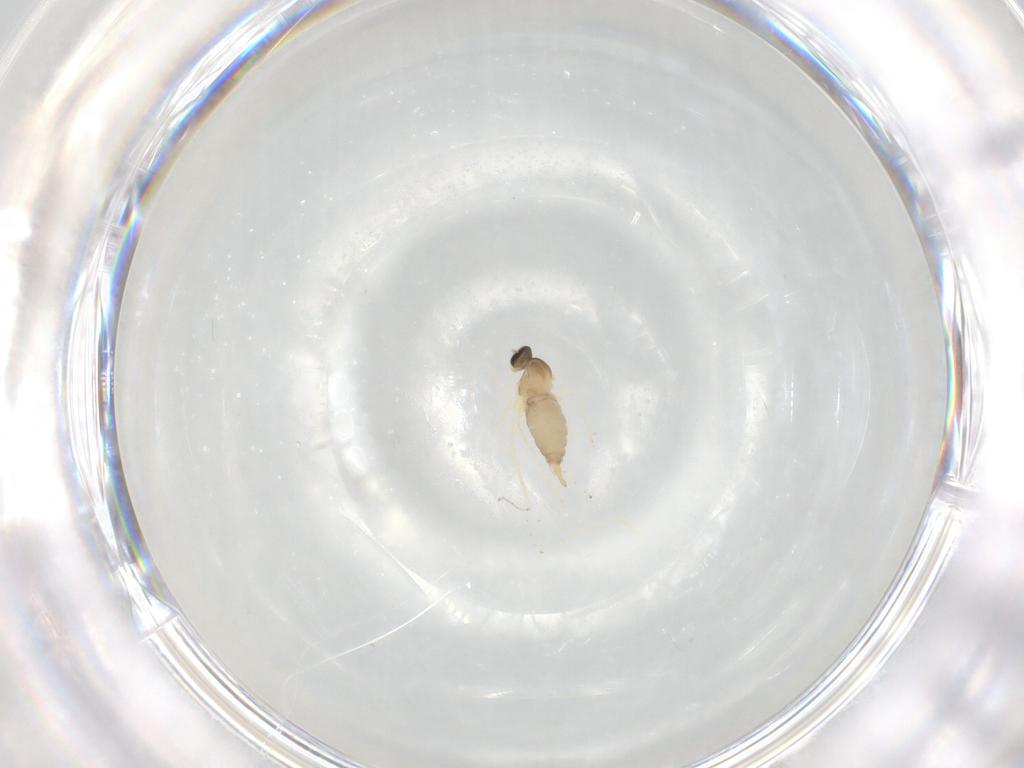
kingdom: Animalia
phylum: Arthropoda
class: Insecta
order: Diptera
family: Cecidomyiidae
